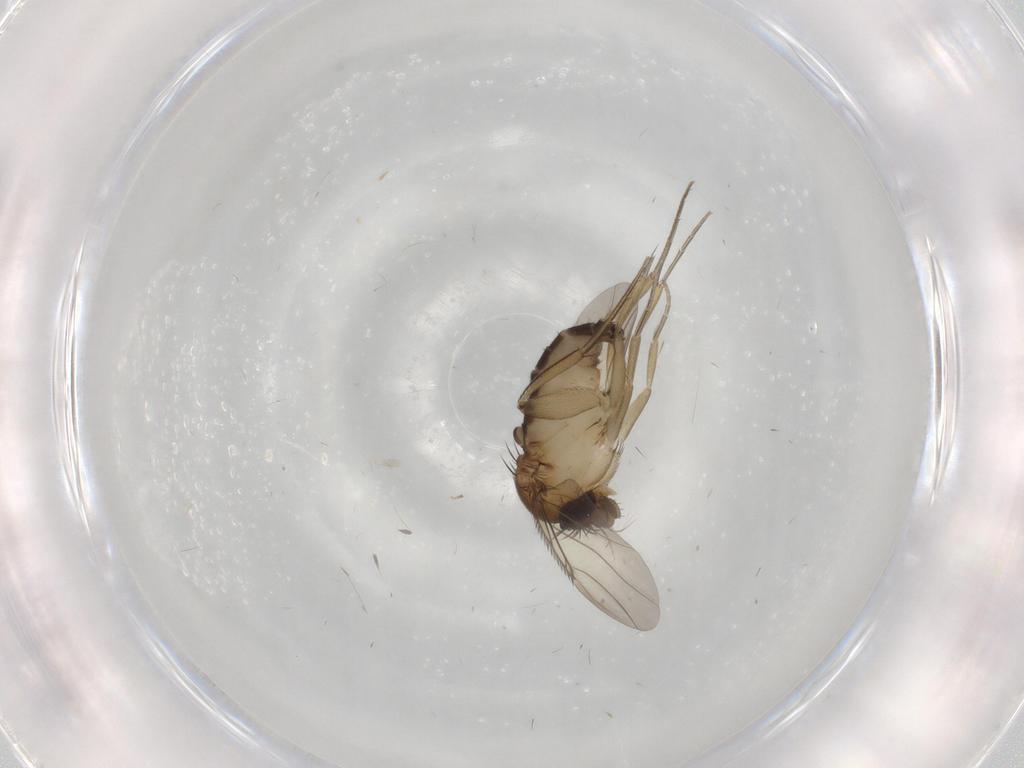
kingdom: Animalia
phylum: Arthropoda
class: Insecta
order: Diptera
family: Phoridae
